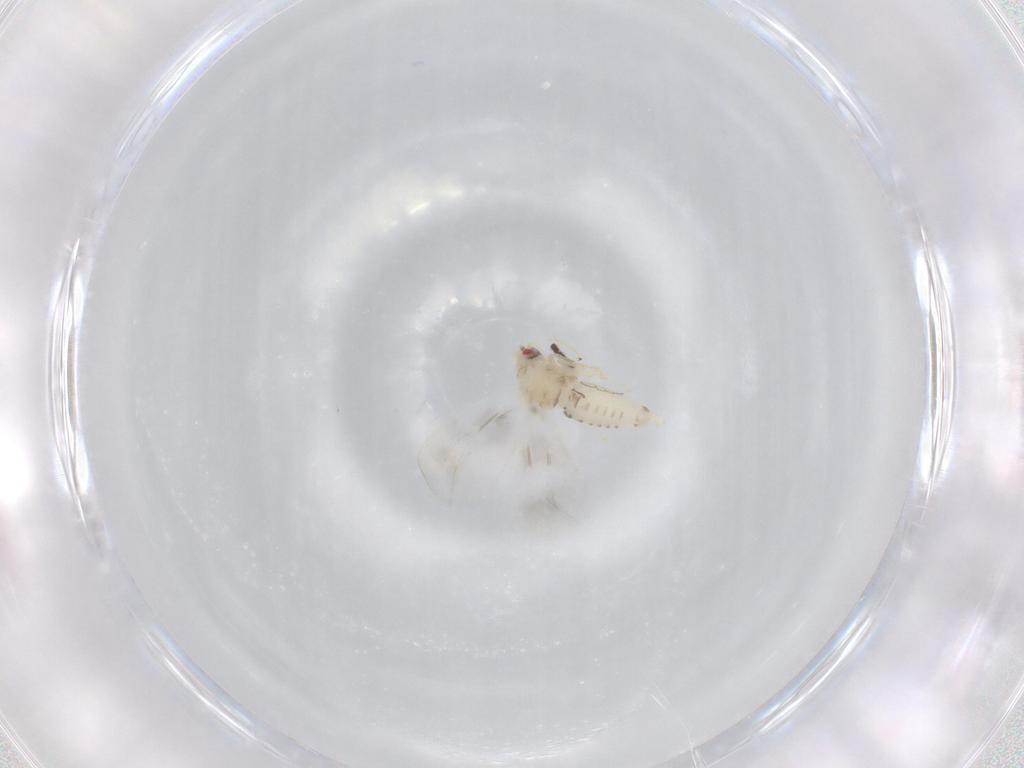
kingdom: Animalia
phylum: Arthropoda
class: Insecta
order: Hemiptera
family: Aleyrodidae
